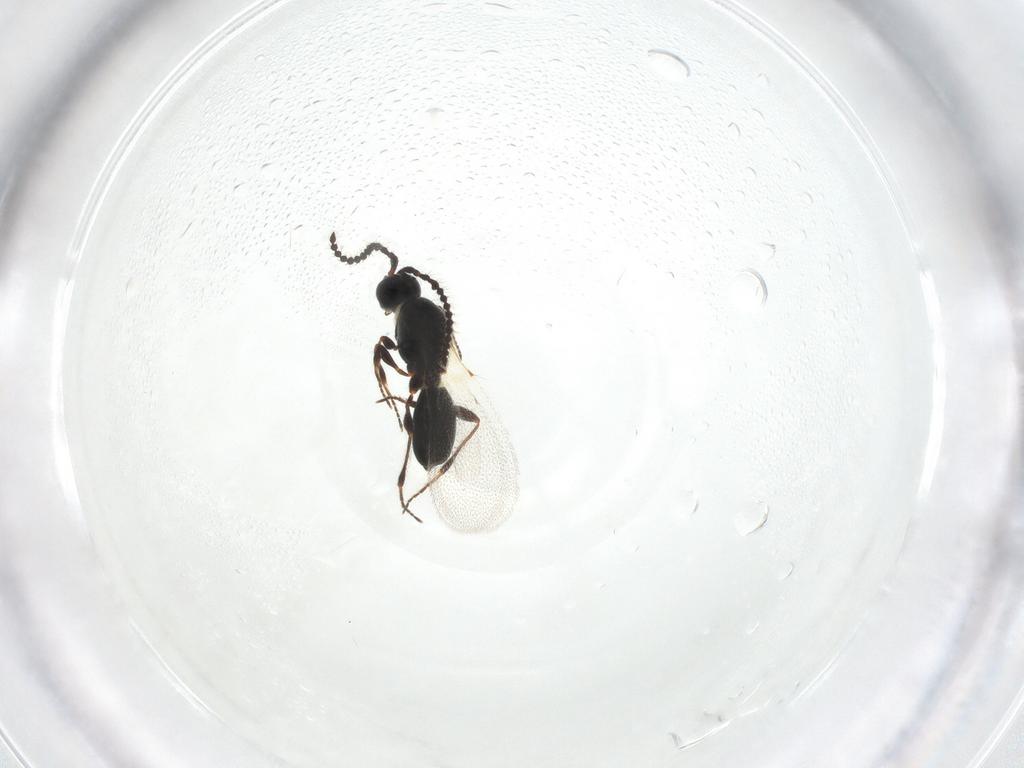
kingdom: Animalia
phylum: Arthropoda
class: Insecta
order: Hymenoptera
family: Diapriidae
